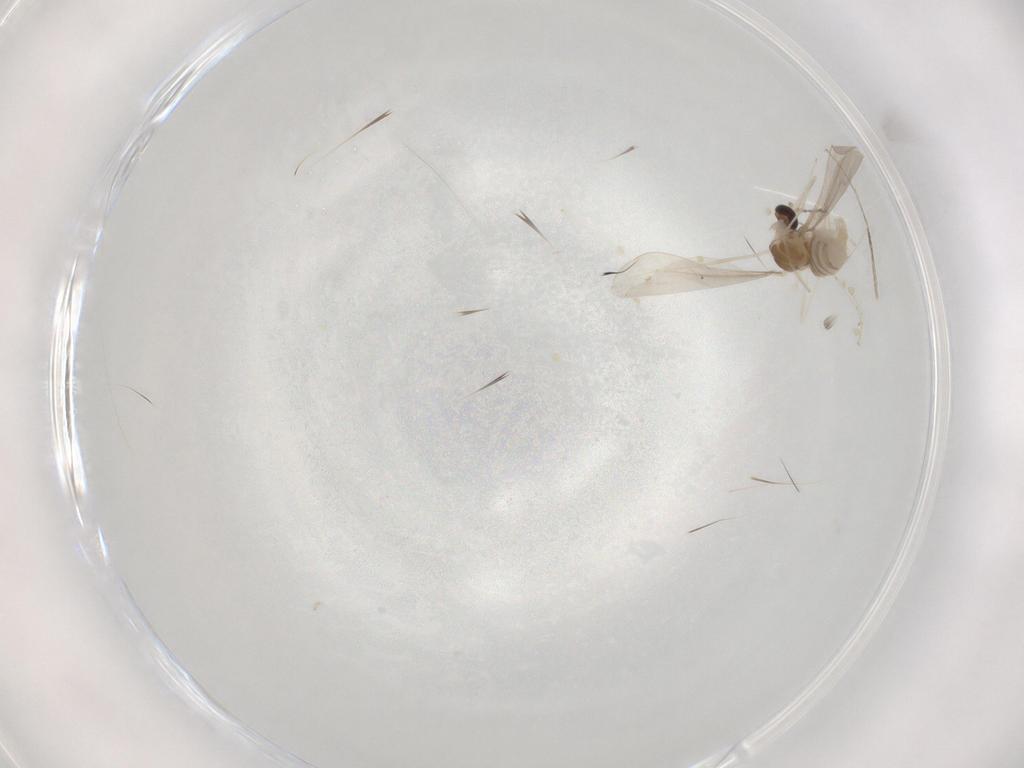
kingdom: Animalia
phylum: Arthropoda
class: Insecta
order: Diptera
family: Cecidomyiidae
